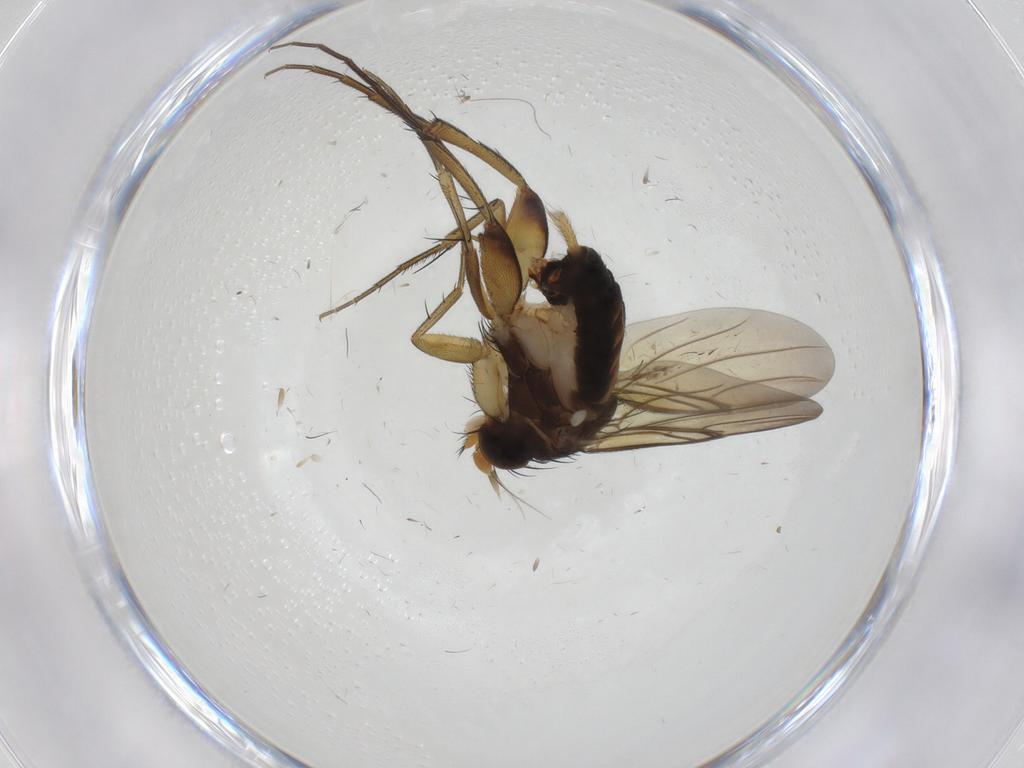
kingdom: Animalia
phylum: Arthropoda
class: Insecta
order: Diptera
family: Phoridae
